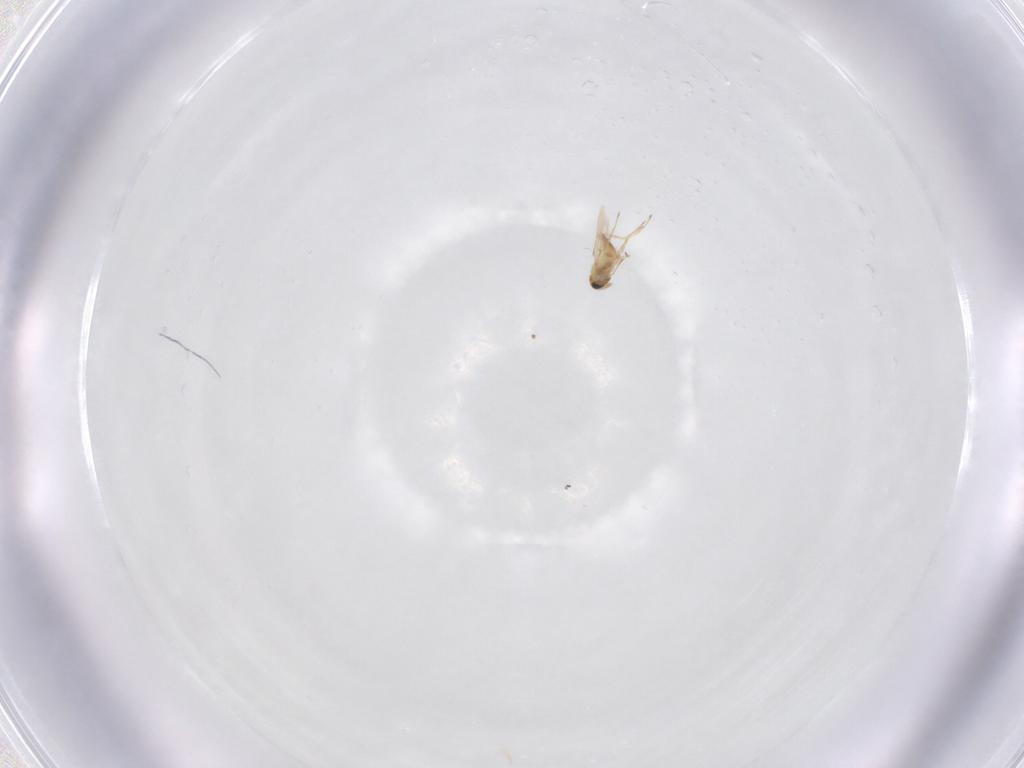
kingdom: Animalia
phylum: Arthropoda
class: Insecta
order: Hymenoptera
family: Trichogrammatidae
